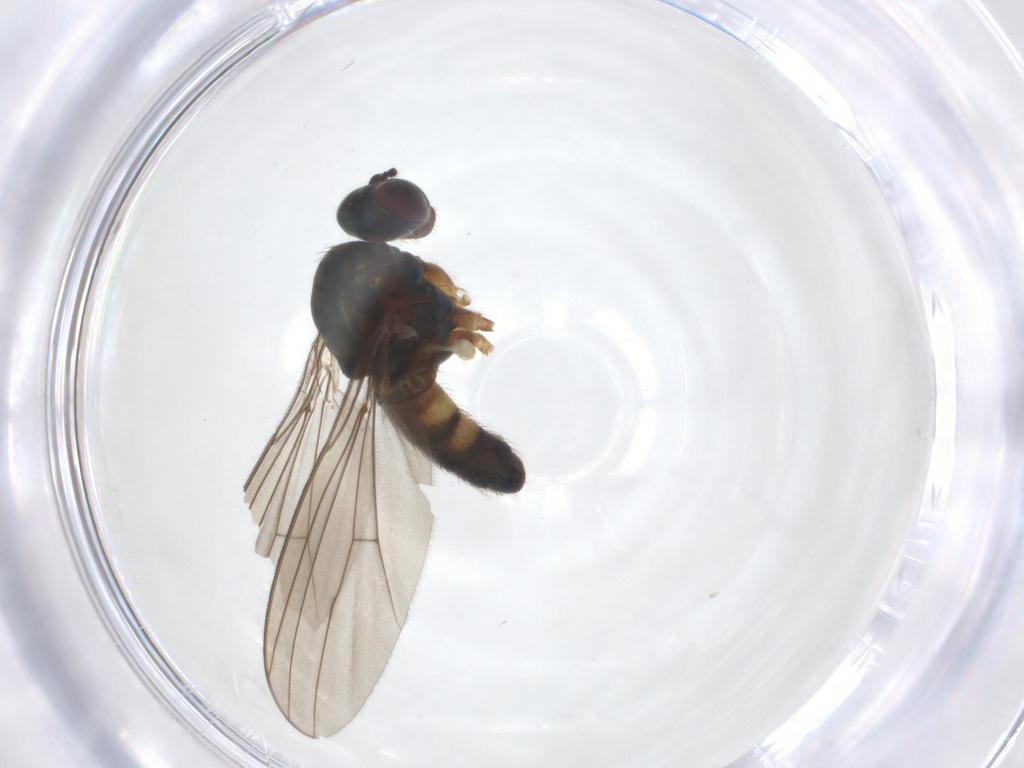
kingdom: Animalia
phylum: Arthropoda
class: Insecta
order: Diptera
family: Dolichopodidae
